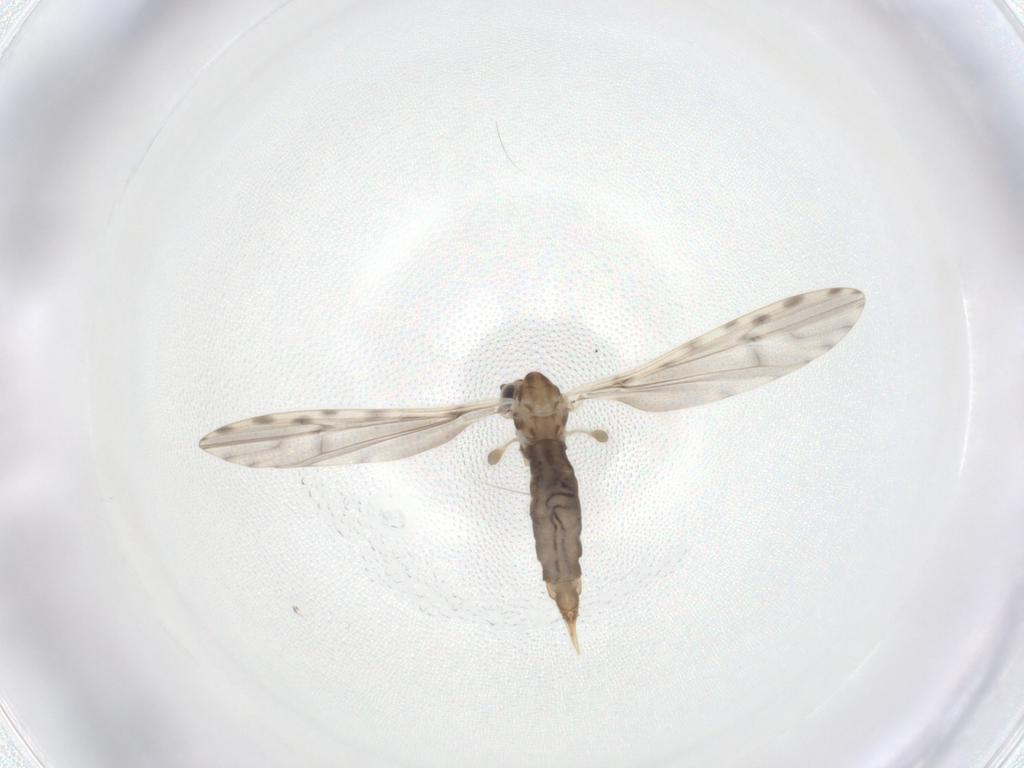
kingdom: Animalia
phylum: Arthropoda
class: Insecta
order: Diptera
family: Limoniidae
